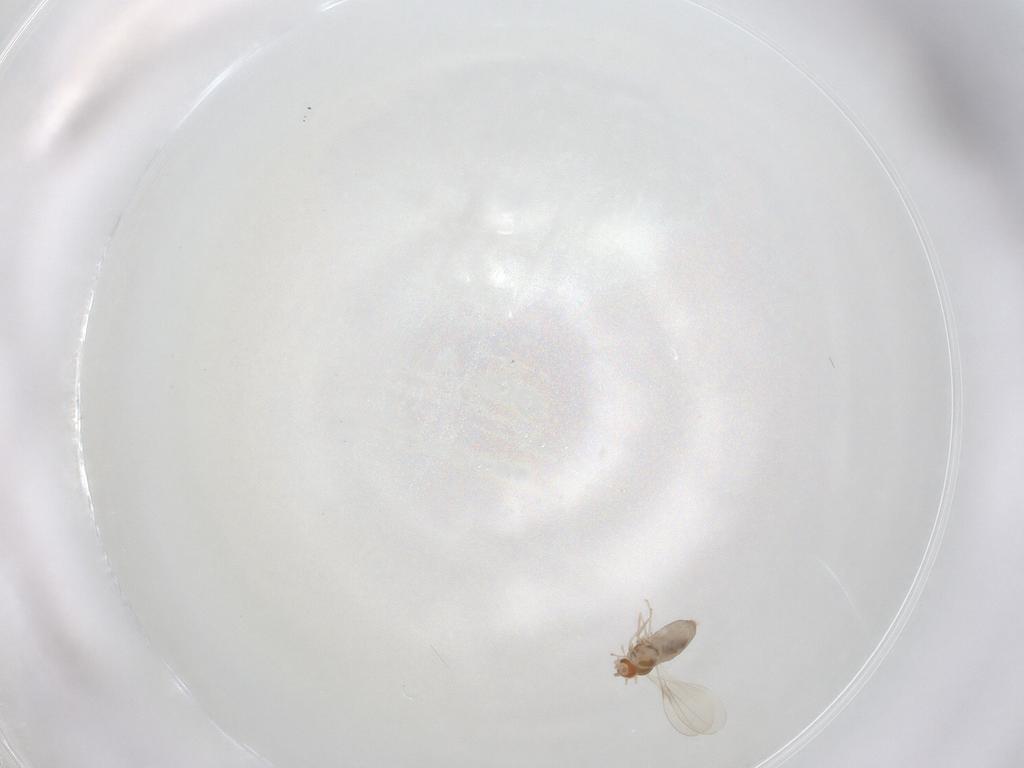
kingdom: Animalia
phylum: Arthropoda
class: Insecta
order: Diptera
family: Cecidomyiidae
